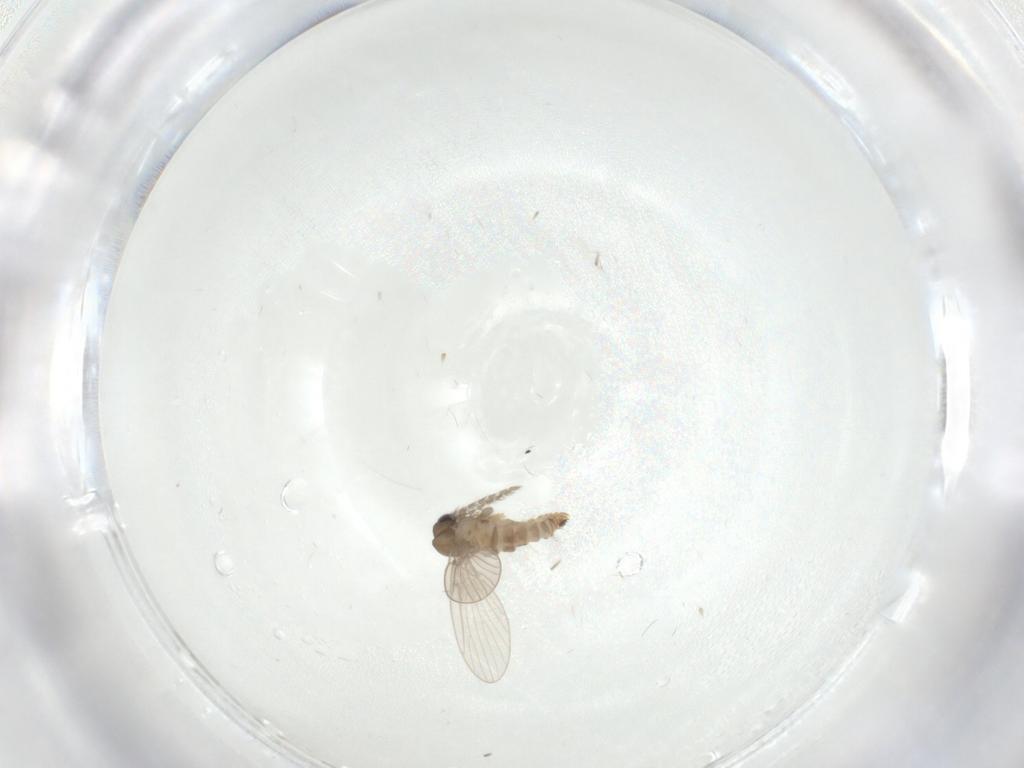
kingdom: Animalia
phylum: Arthropoda
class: Insecta
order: Diptera
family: Psychodidae
